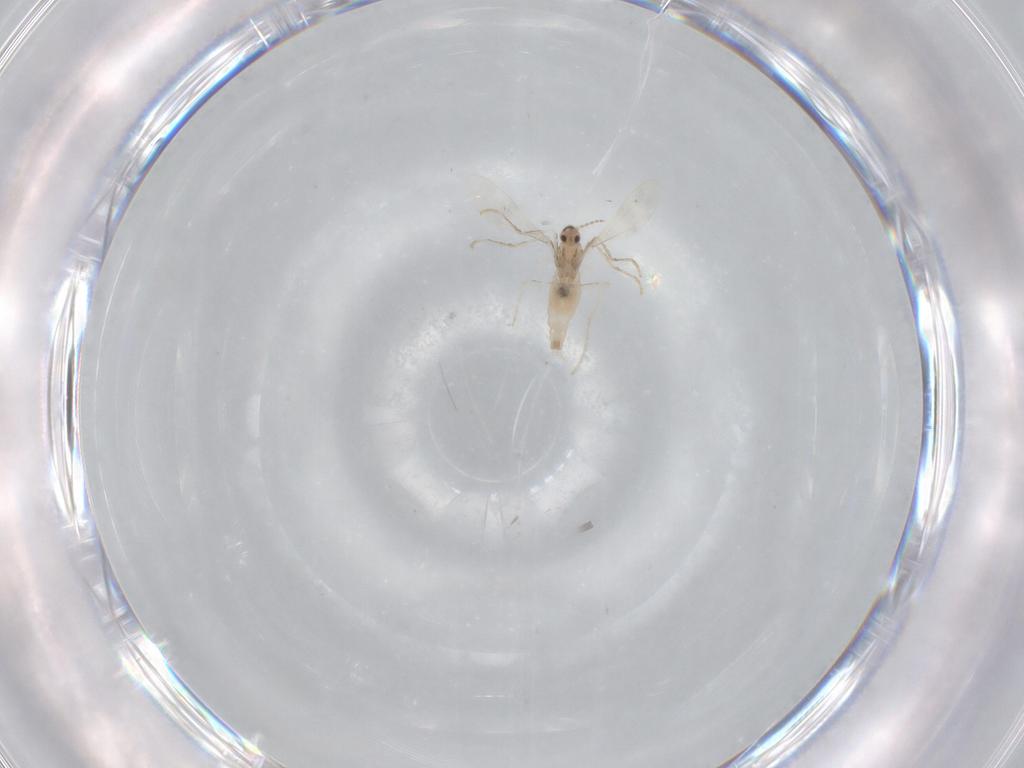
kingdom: Animalia
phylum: Arthropoda
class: Insecta
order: Diptera
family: Cecidomyiidae
